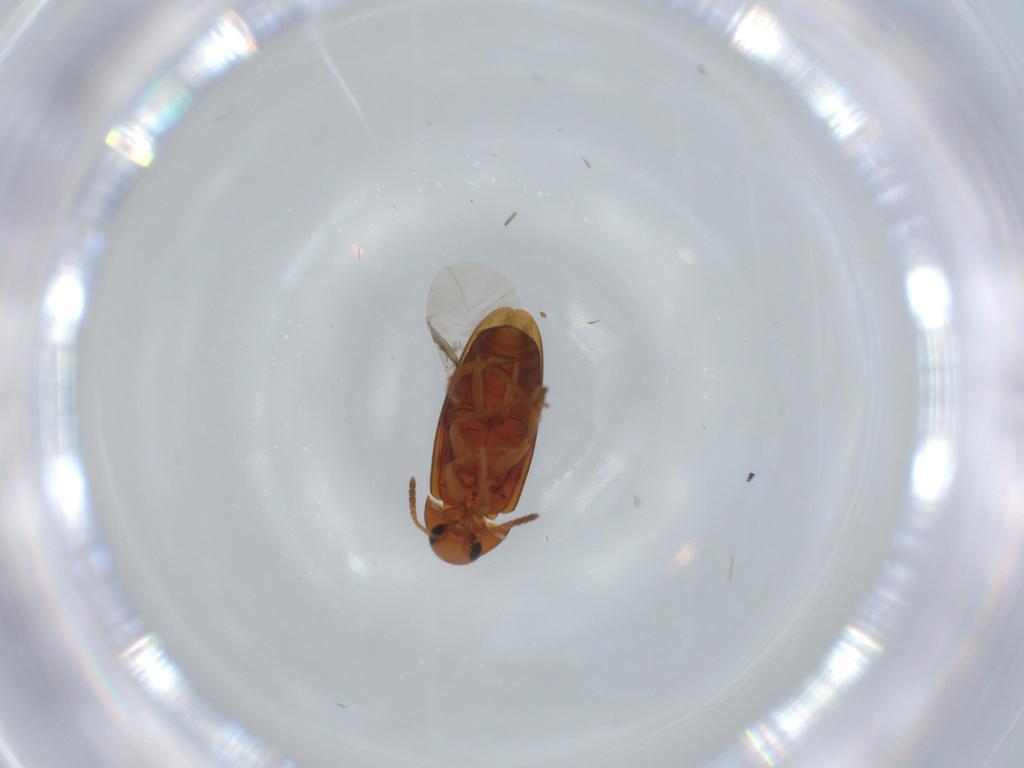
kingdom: Animalia
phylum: Arthropoda
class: Insecta
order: Coleoptera
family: Scraptiidae
